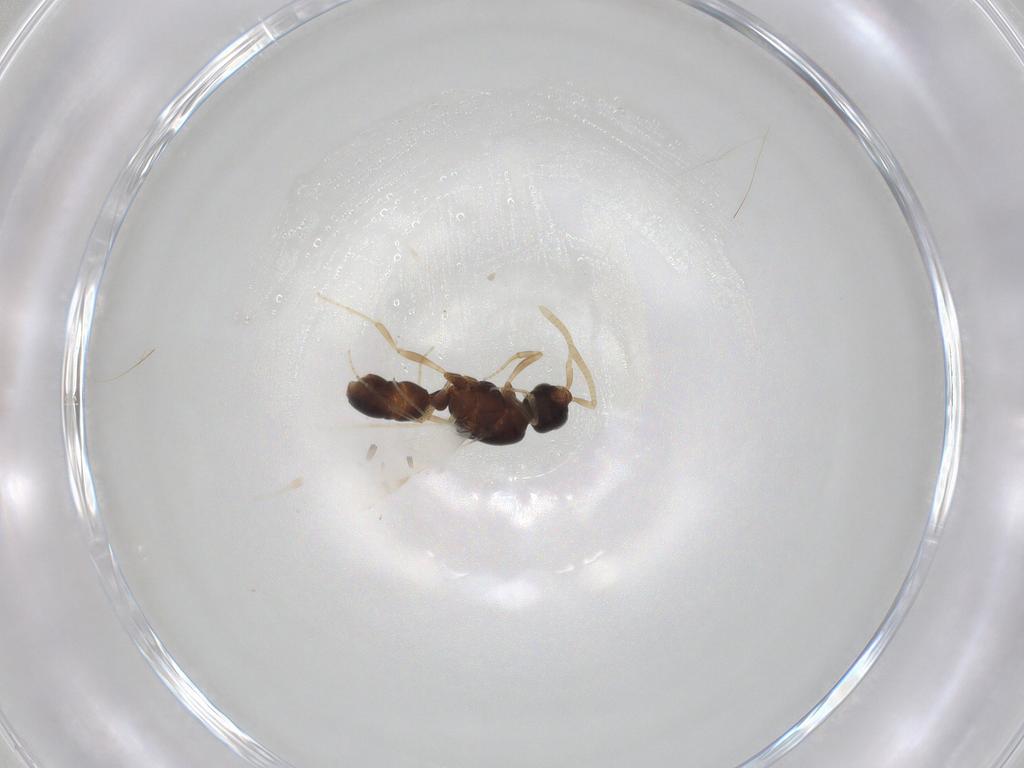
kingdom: Animalia
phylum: Arthropoda
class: Insecta
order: Hymenoptera
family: Formicidae
